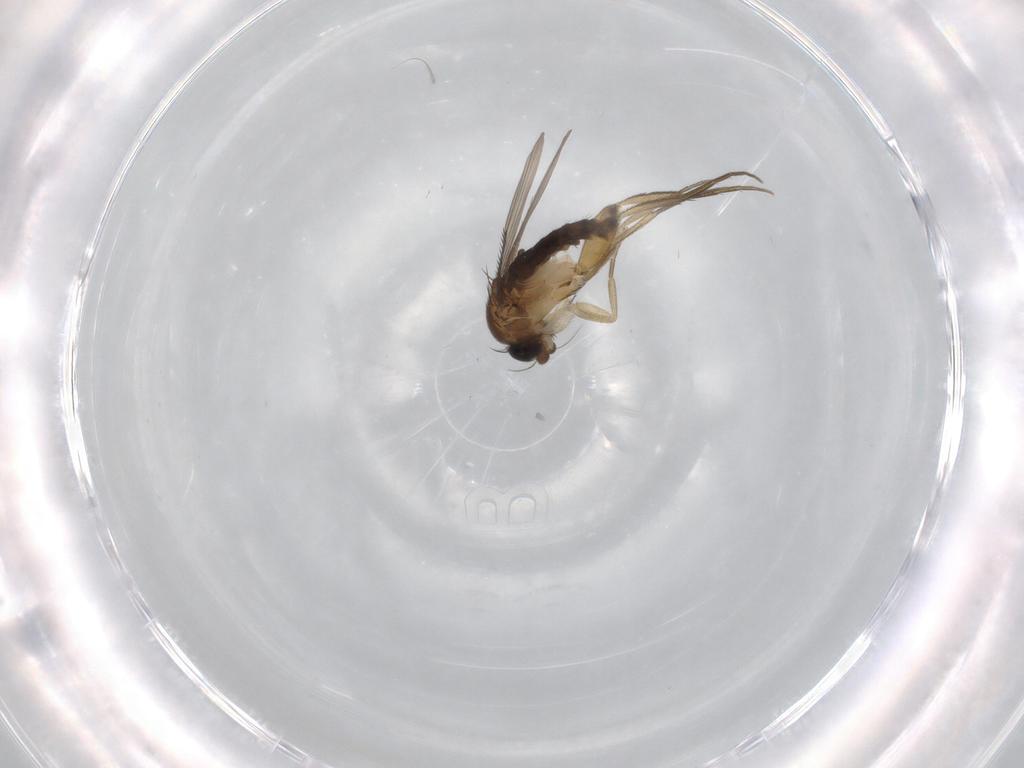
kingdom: Animalia
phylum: Arthropoda
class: Insecta
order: Diptera
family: Phoridae
